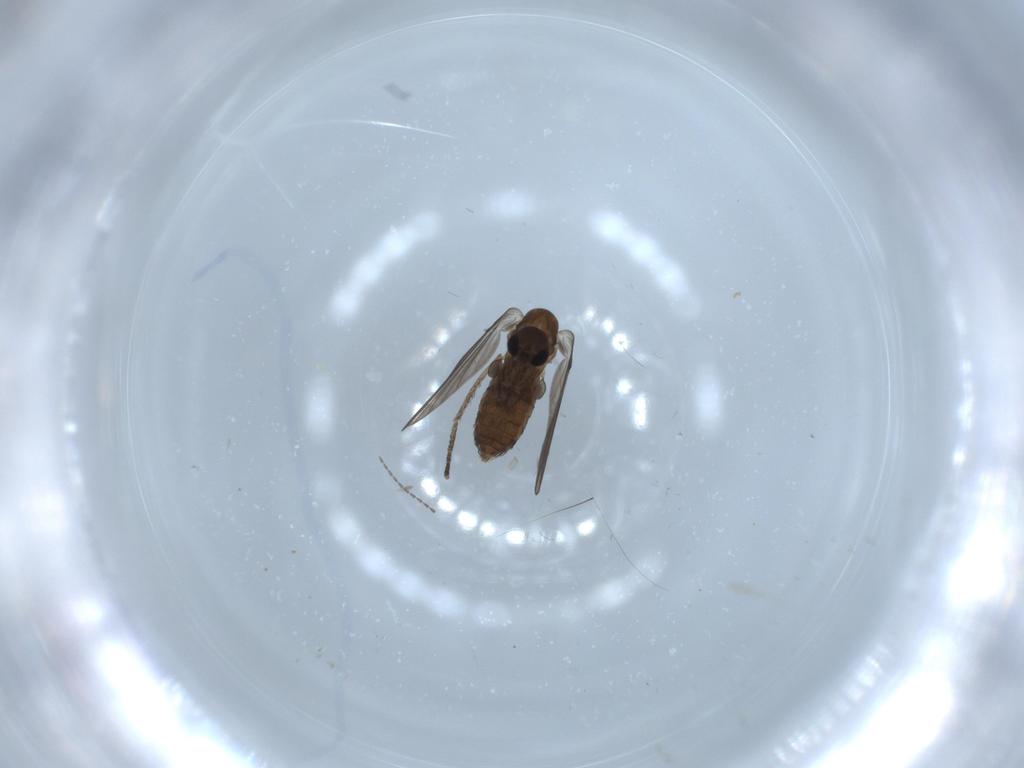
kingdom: Animalia
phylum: Arthropoda
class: Insecta
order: Diptera
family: Psychodidae
